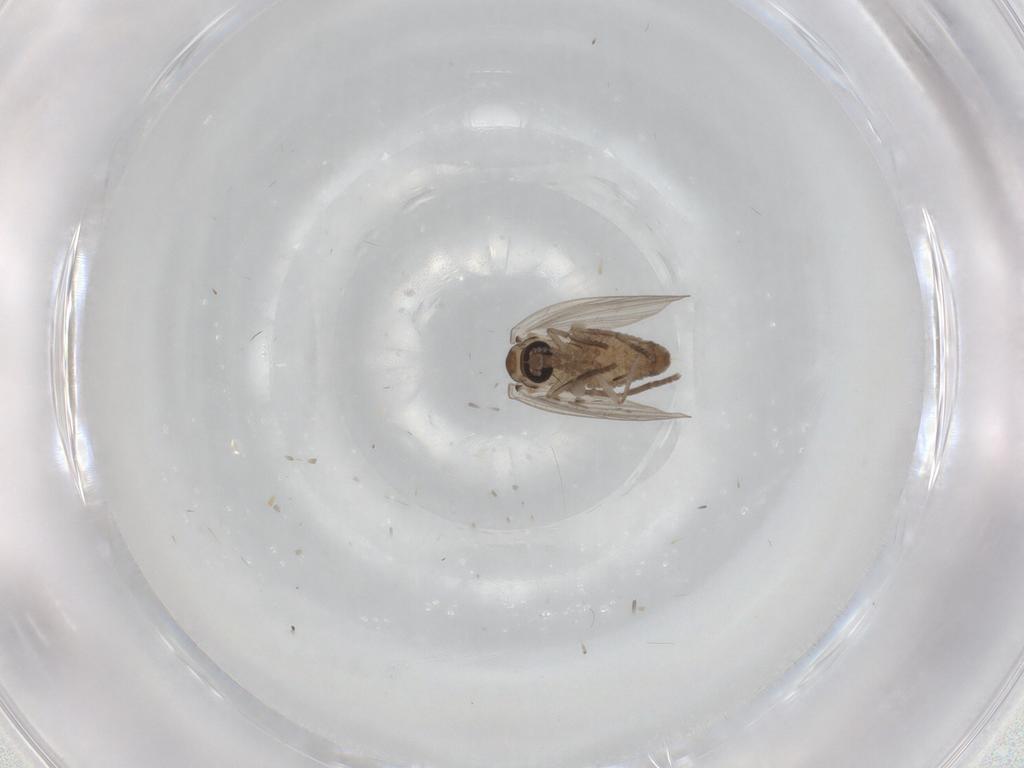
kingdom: Animalia
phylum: Arthropoda
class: Insecta
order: Diptera
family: Psychodidae
